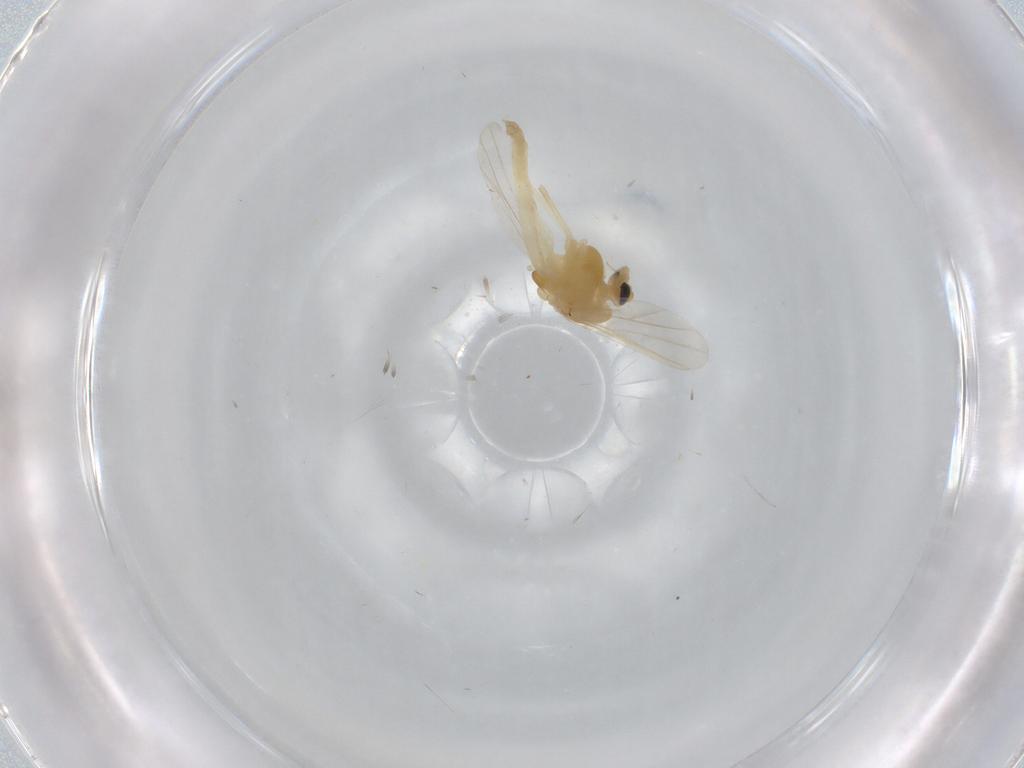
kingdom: Animalia
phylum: Arthropoda
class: Insecta
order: Diptera
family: Chironomidae
